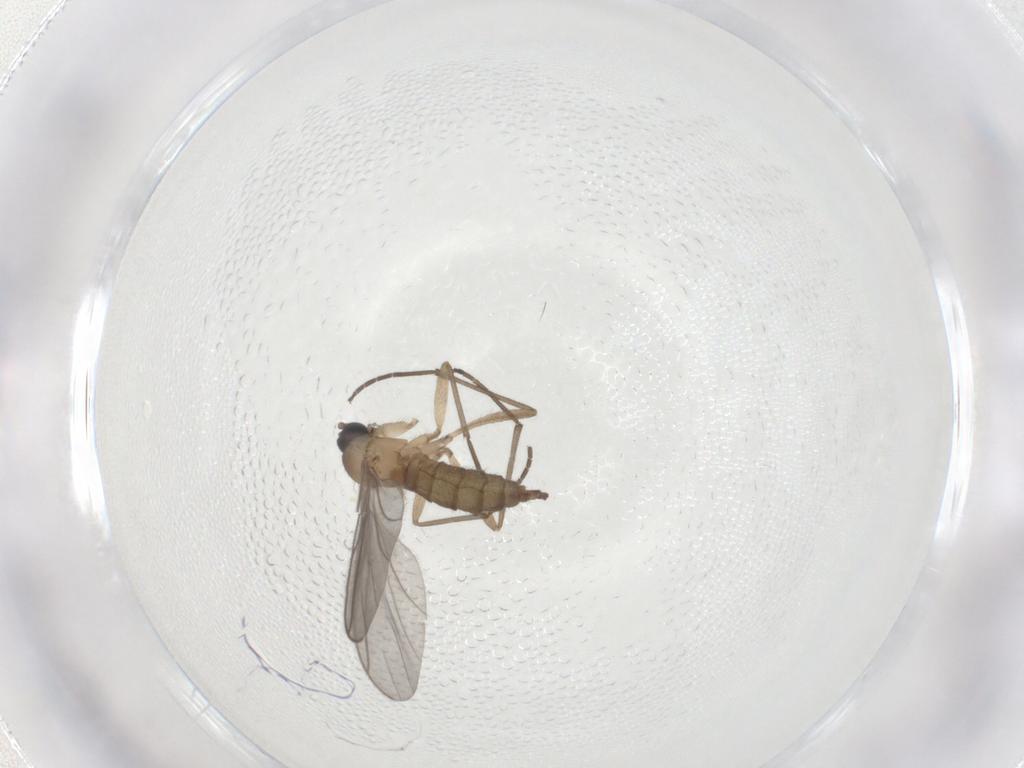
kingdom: Animalia
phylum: Arthropoda
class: Insecta
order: Diptera
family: Sciaridae
